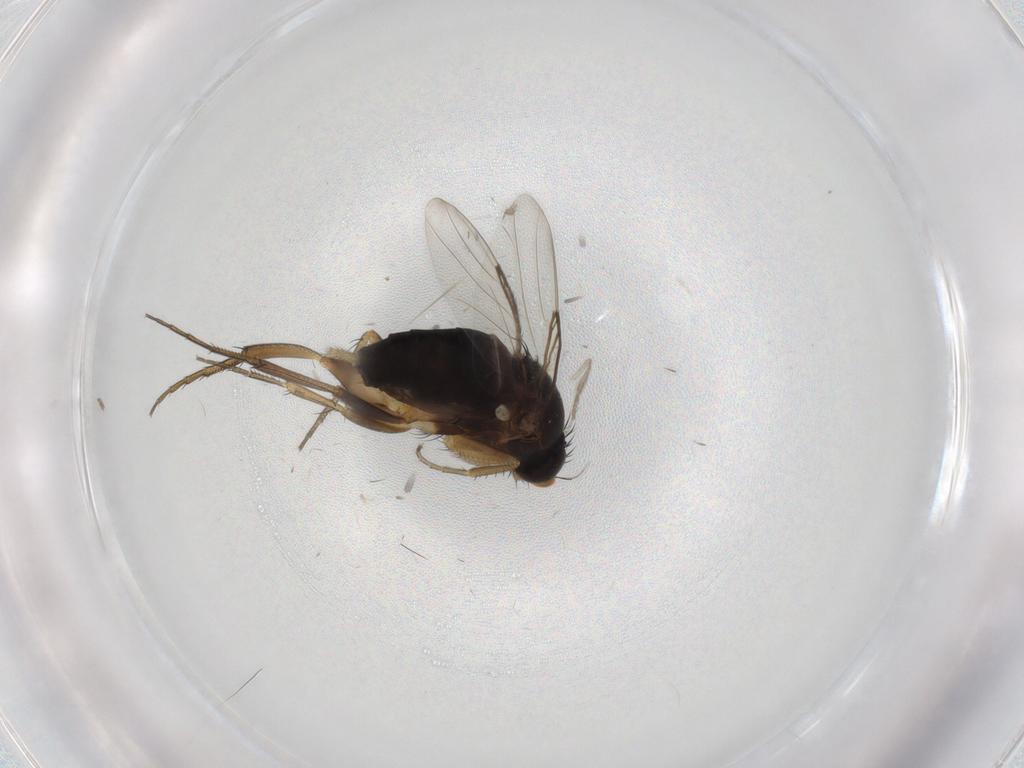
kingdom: Animalia
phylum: Arthropoda
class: Insecta
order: Diptera
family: Phoridae
